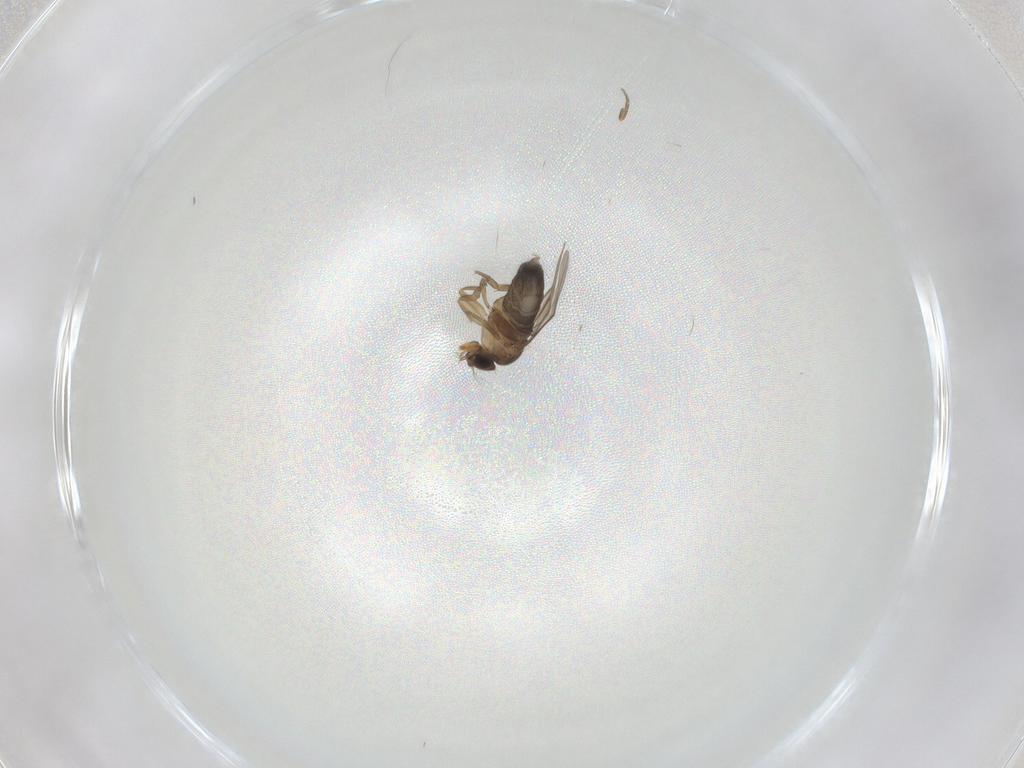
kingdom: Animalia
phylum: Arthropoda
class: Insecta
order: Diptera
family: Phoridae
